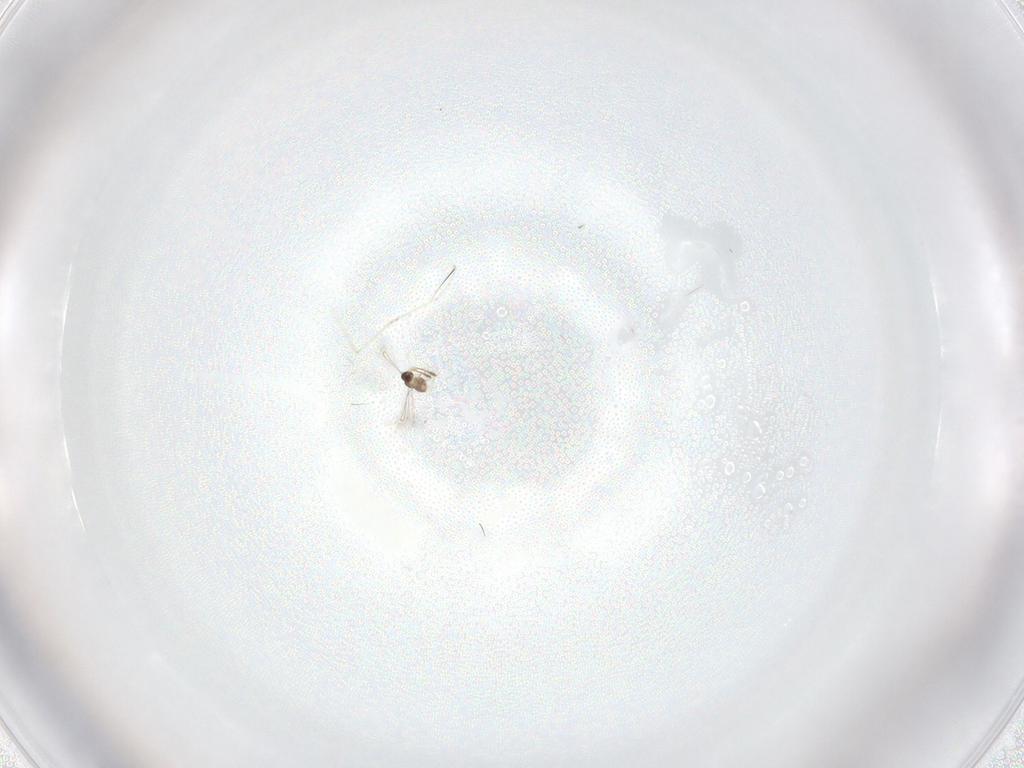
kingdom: Animalia
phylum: Arthropoda
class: Insecta
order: Diptera
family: Cecidomyiidae
